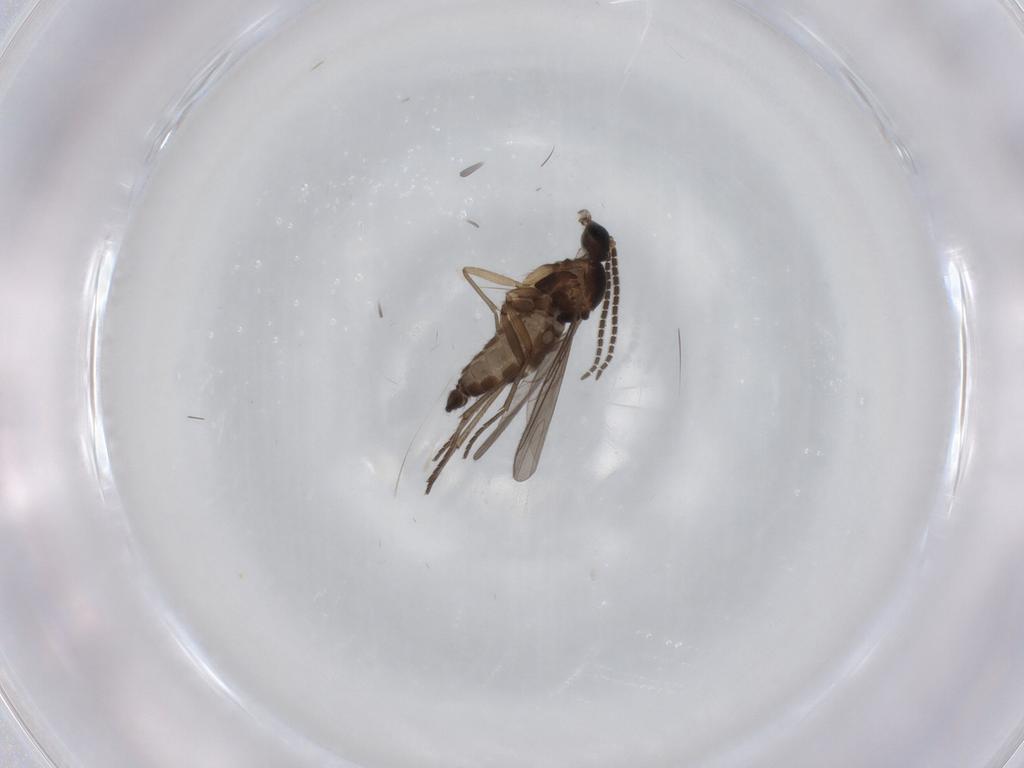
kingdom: Animalia
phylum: Arthropoda
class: Insecta
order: Diptera
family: Sciaridae
